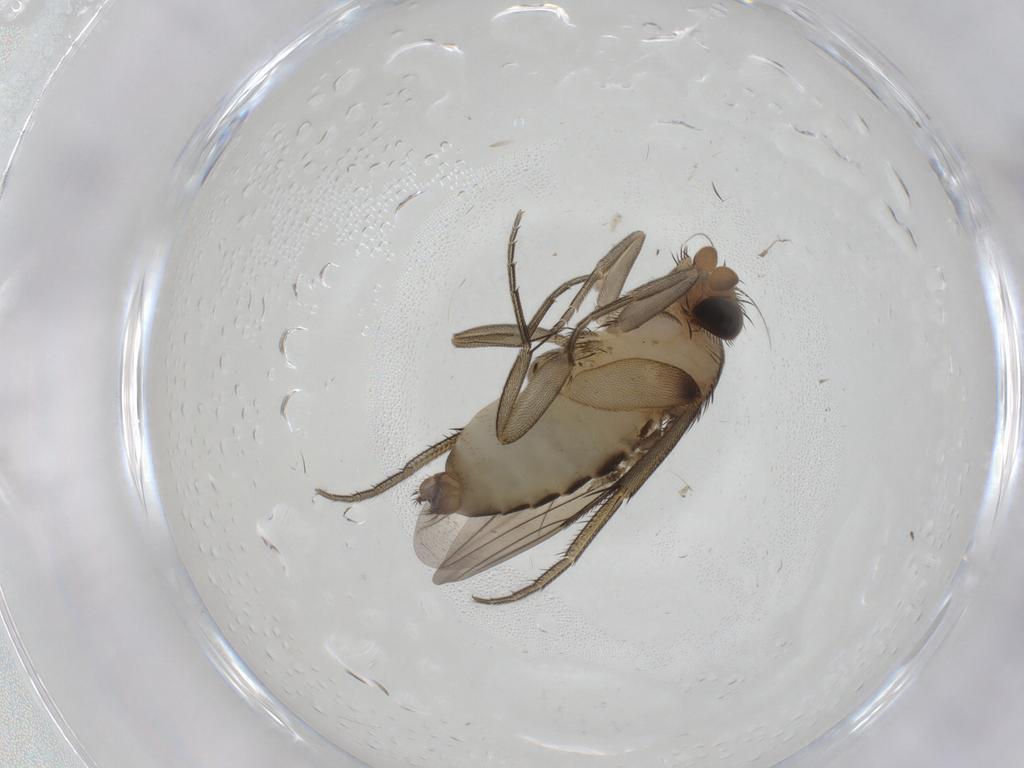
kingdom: Animalia
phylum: Arthropoda
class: Insecta
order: Diptera
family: Phoridae
